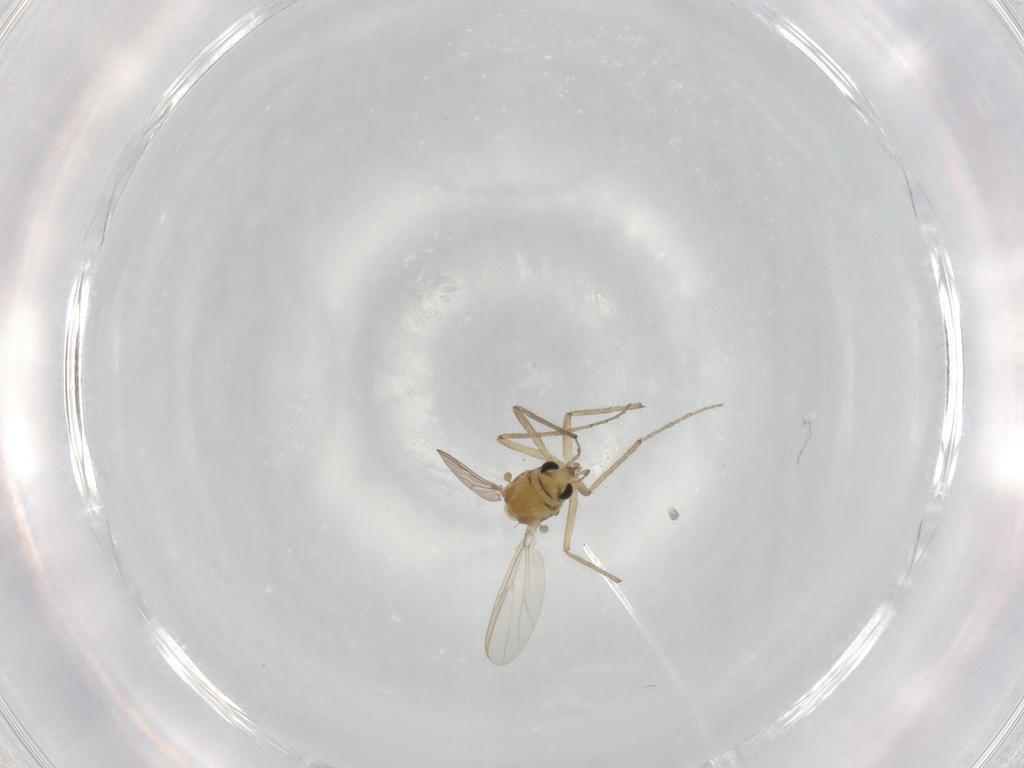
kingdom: Animalia
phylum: Arthropoda
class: Insecta
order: Diptera
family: Chironomidae
